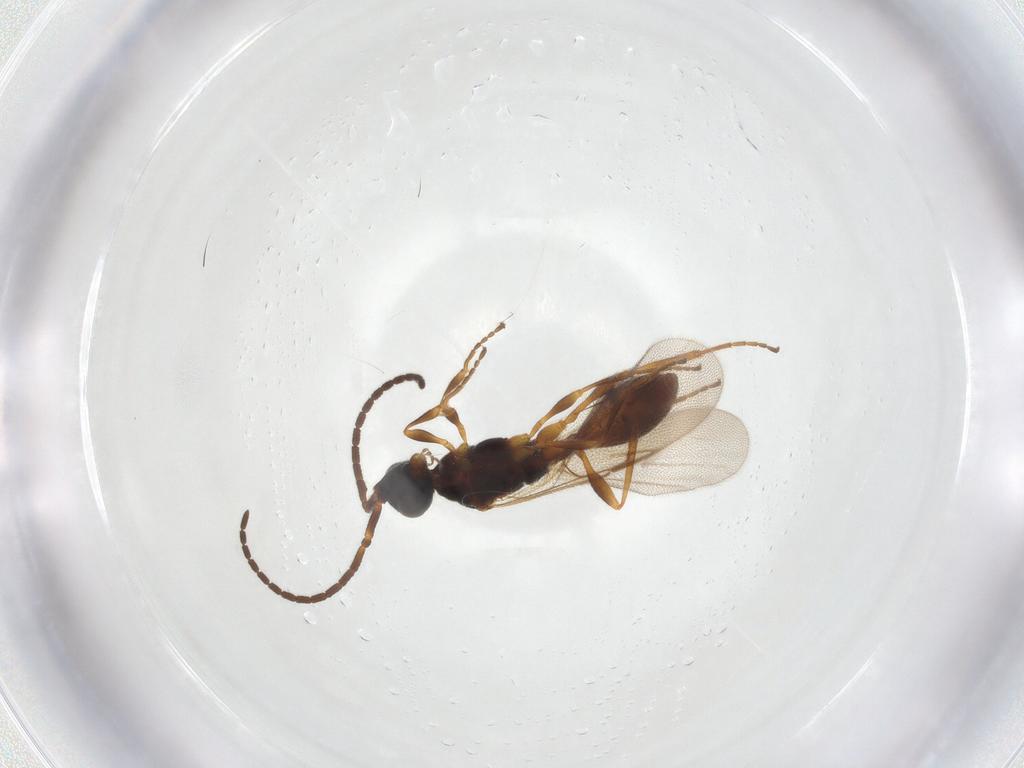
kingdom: Animalia
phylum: Arthropoda
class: Insecta
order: Hymenoptera
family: Diapriidae
